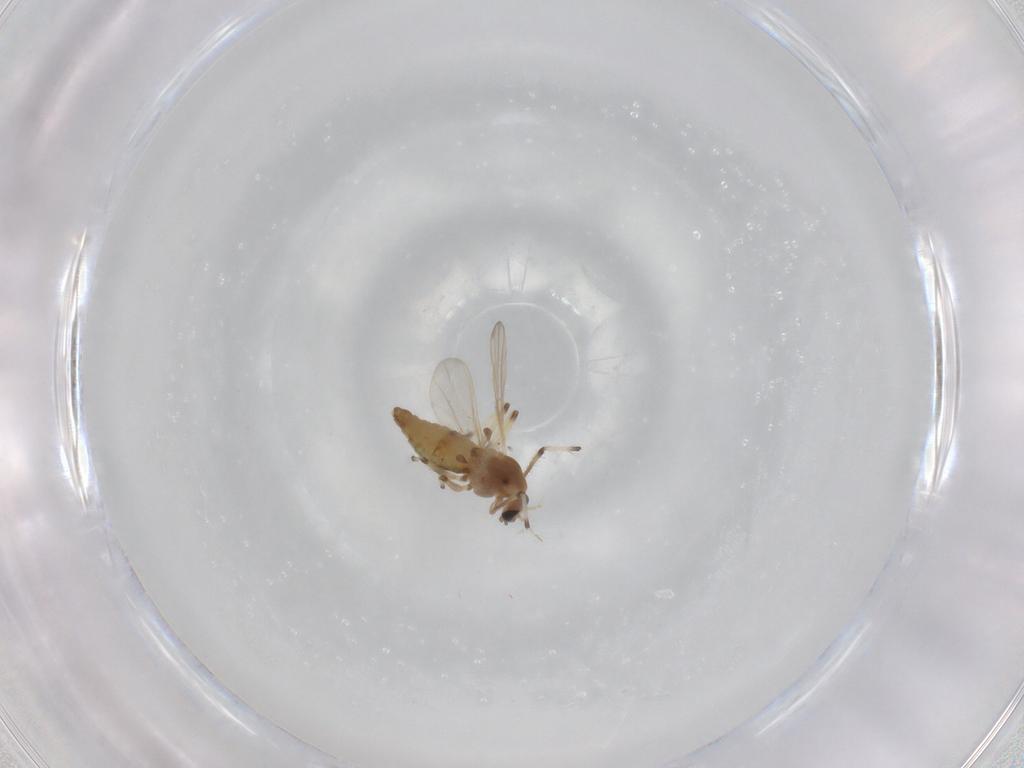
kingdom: Animalia
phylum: Arthropoda
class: Insecta
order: Diptera
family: Chironomidae
